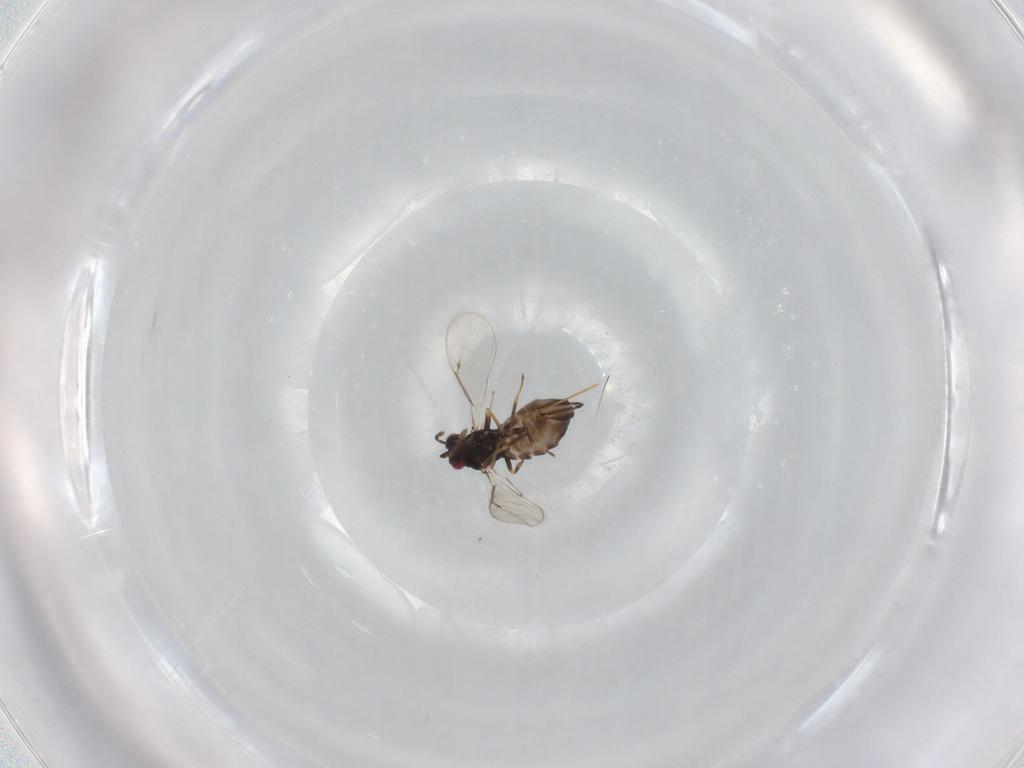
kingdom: Animalia
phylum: Arthropoda
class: Insecta
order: Hymenoptera
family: Eulophidae
